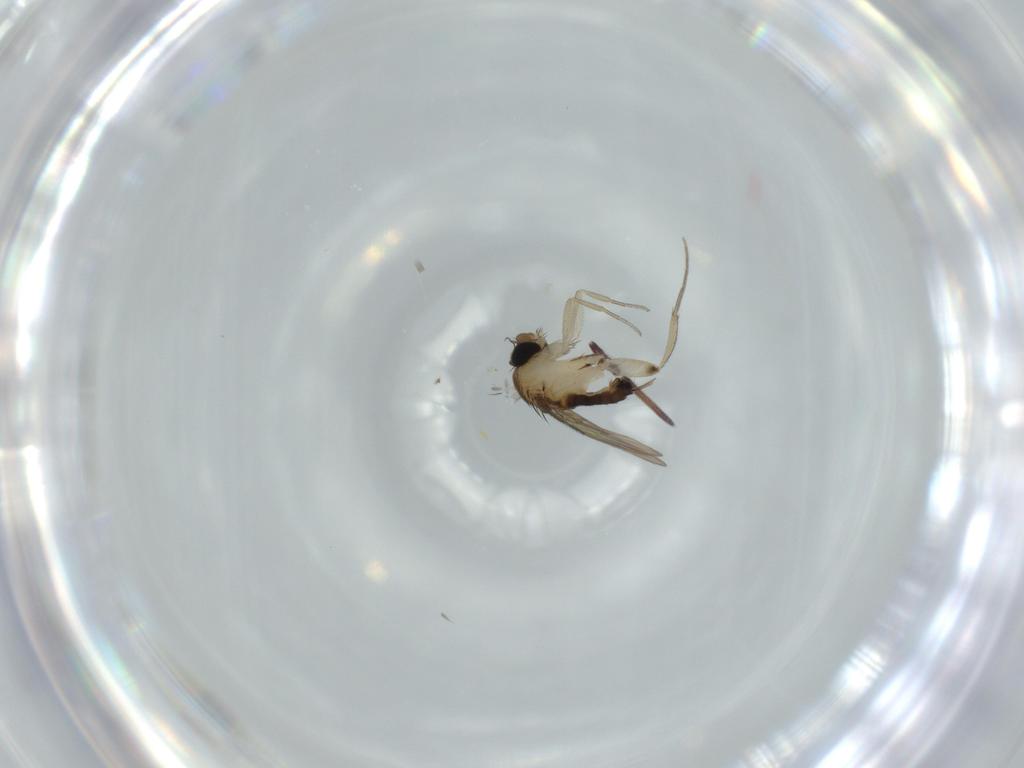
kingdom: Animalia
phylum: Arthropoda
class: Insecta
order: Diptera
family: Phoridae
